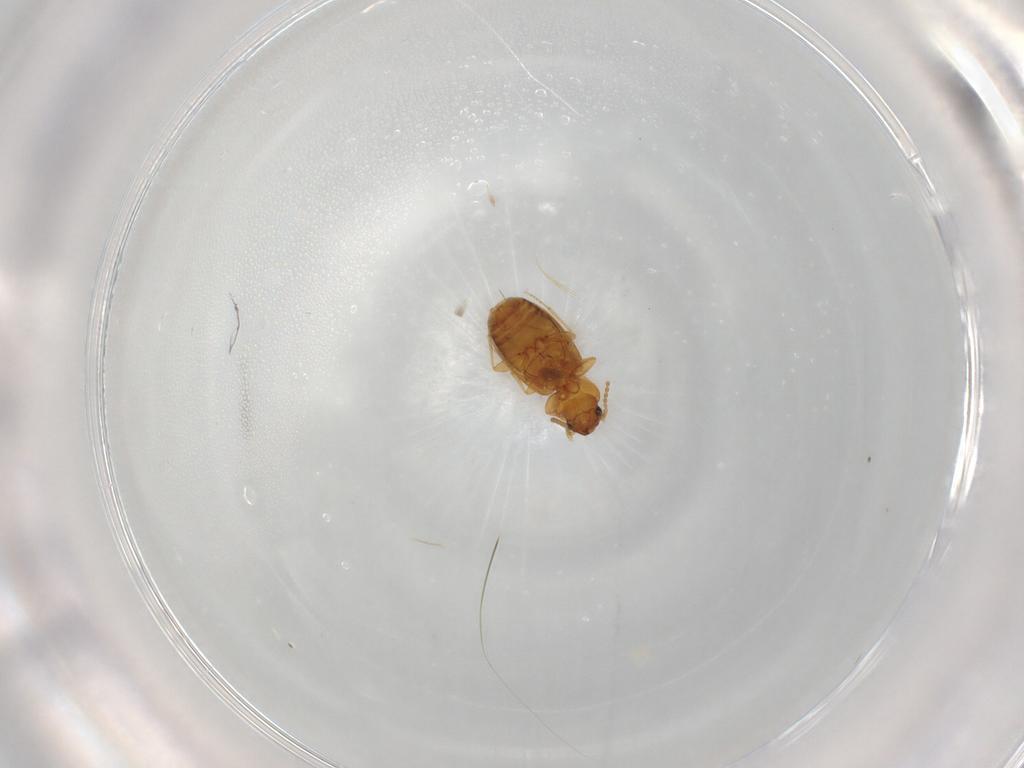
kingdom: Animalia
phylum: Arthropoda
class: Insecta
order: Coleoptera
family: Carabidae
